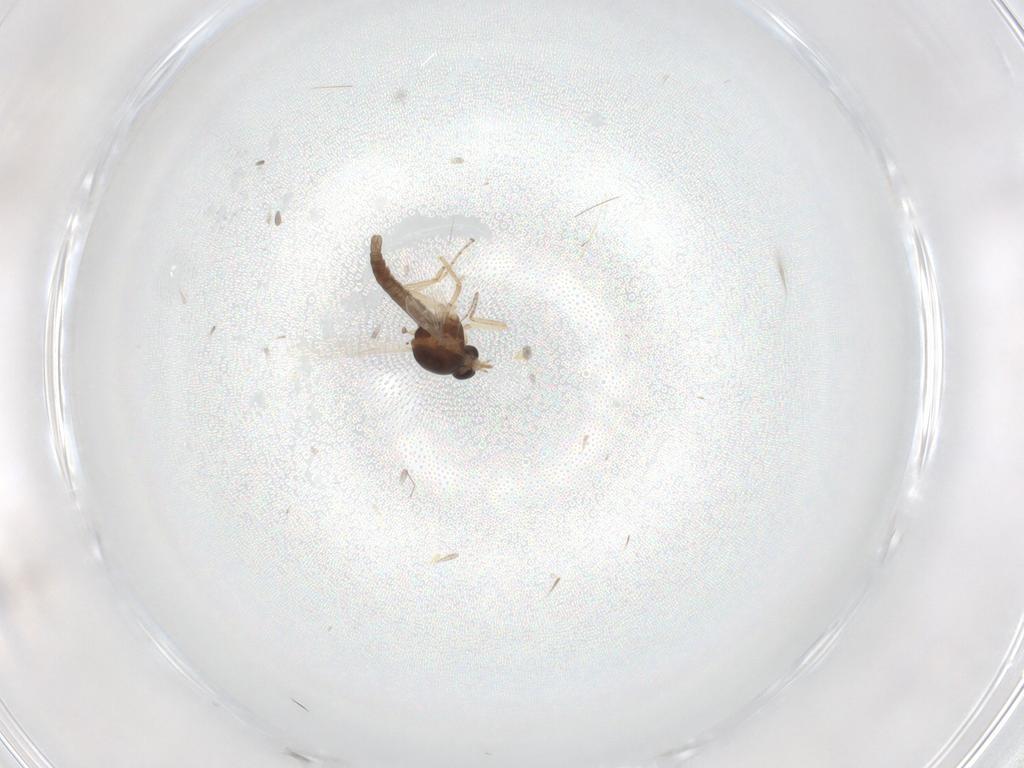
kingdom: Animalia
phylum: Arthropoda
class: Insecta
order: Diptera
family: Ceratopogonidae
